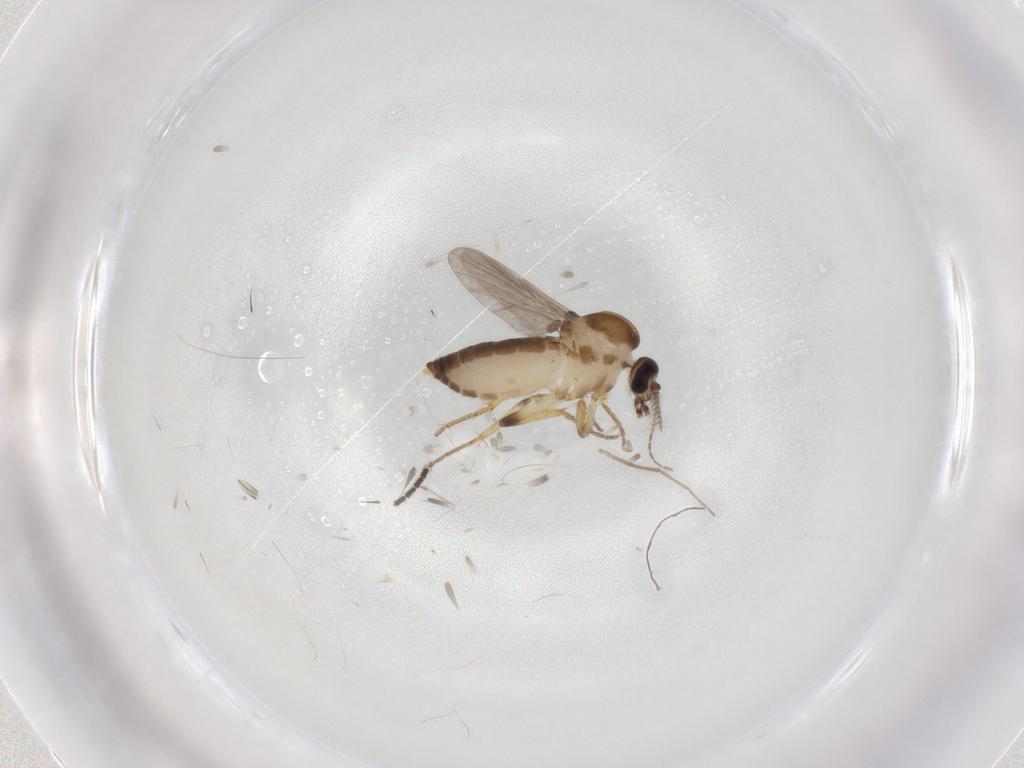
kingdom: Animalia
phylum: Arthropoda
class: Insecta
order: Diptera
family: Ceratopogonidae
